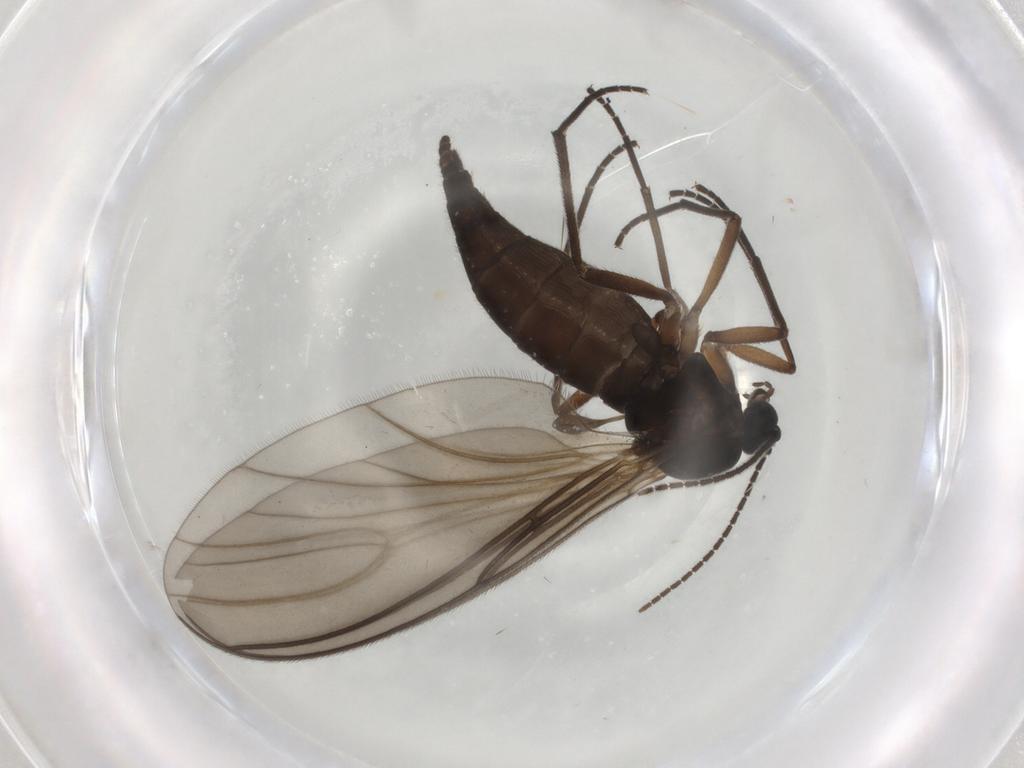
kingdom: Animalia
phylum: Arthropoda
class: Insecta
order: Diptera
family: Sciaridae
